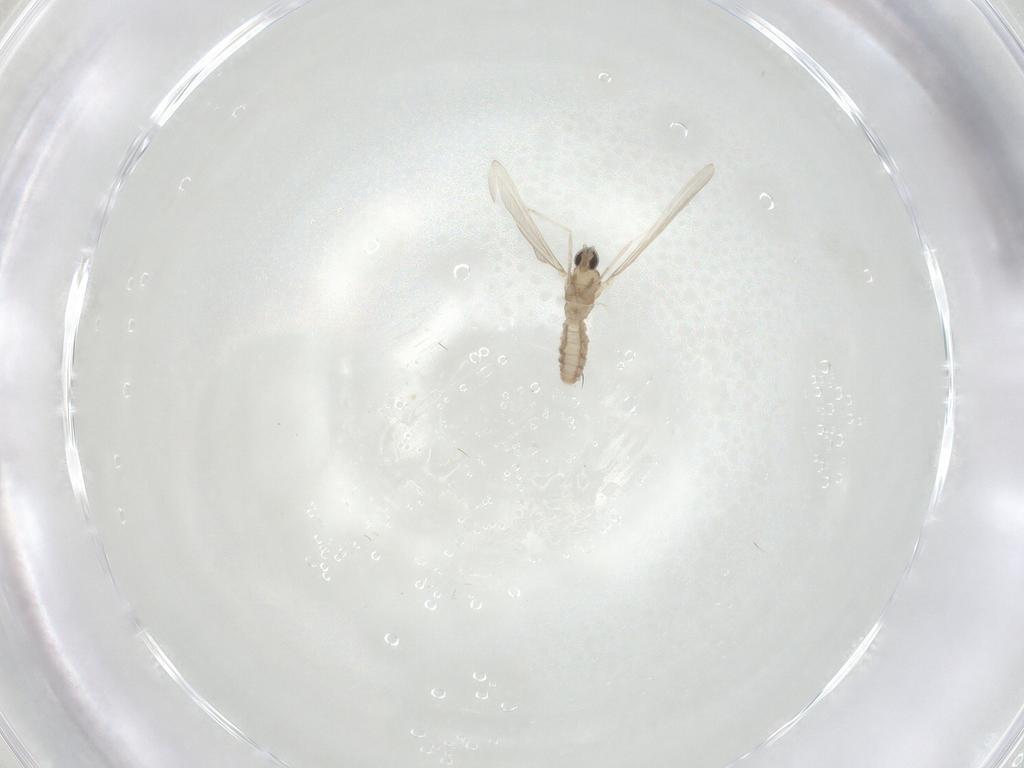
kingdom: Animalia
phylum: Arthropoda
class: Insecta
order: Diptera
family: Cecidomyiidae
